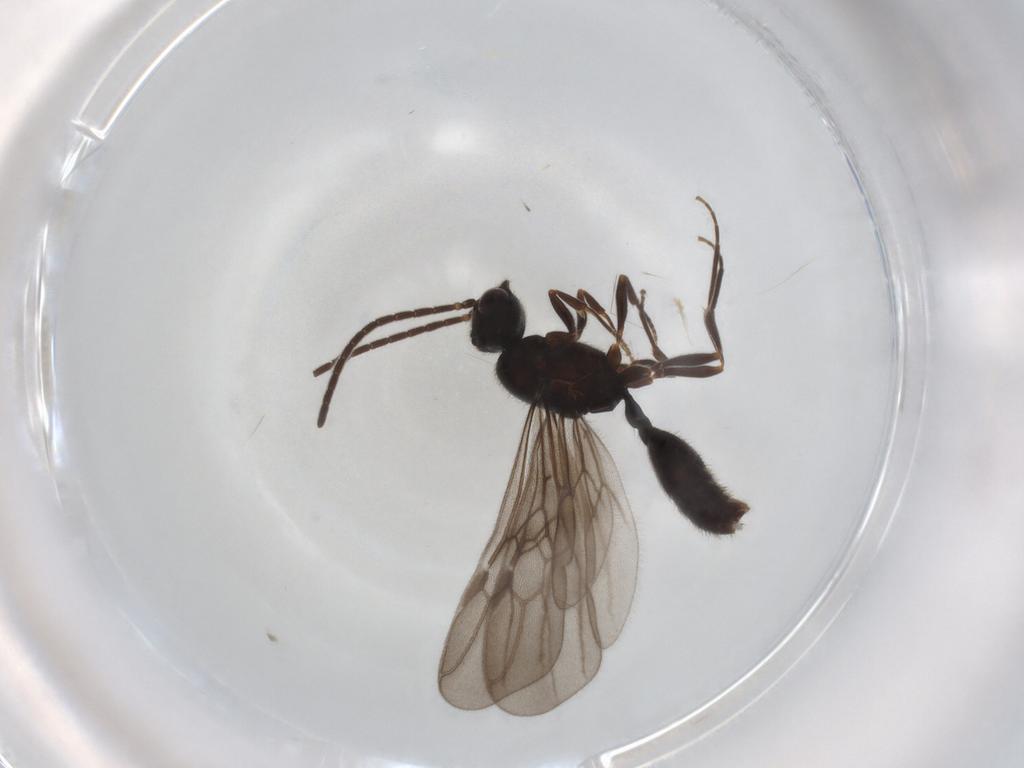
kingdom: Animalia
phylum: Arthropoda
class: Insecta
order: Hymenoptera
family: Formicidae
